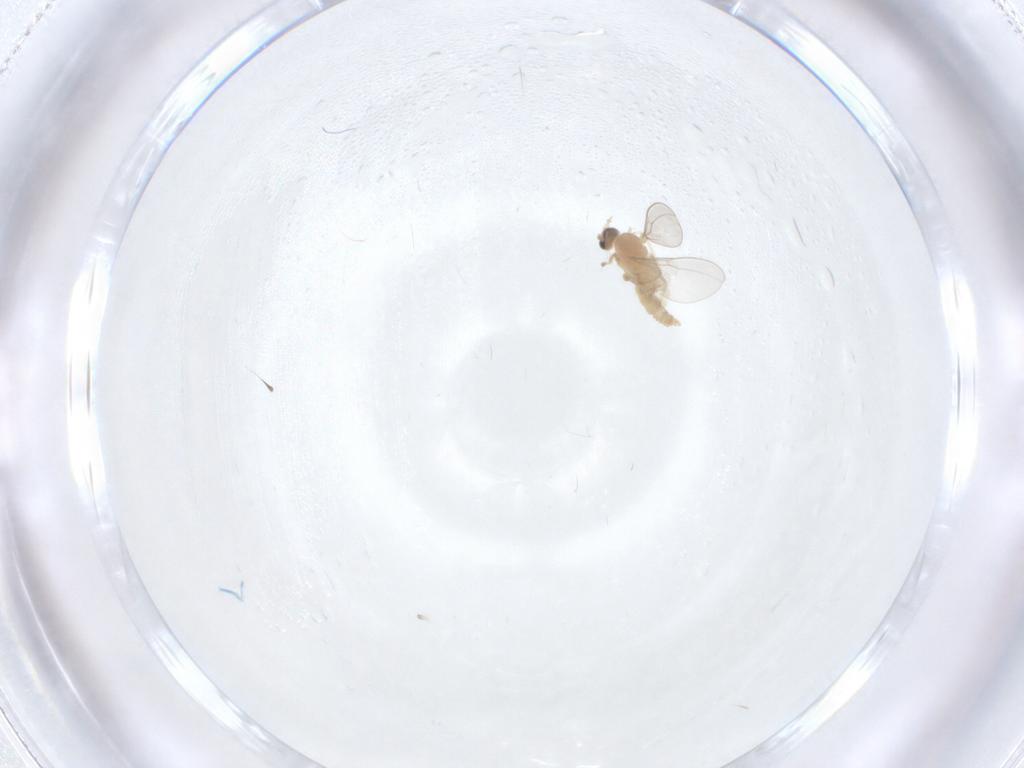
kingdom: Animalia
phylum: Arthropoda
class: Insecta
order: Diptera
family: Cecidomyiidae
